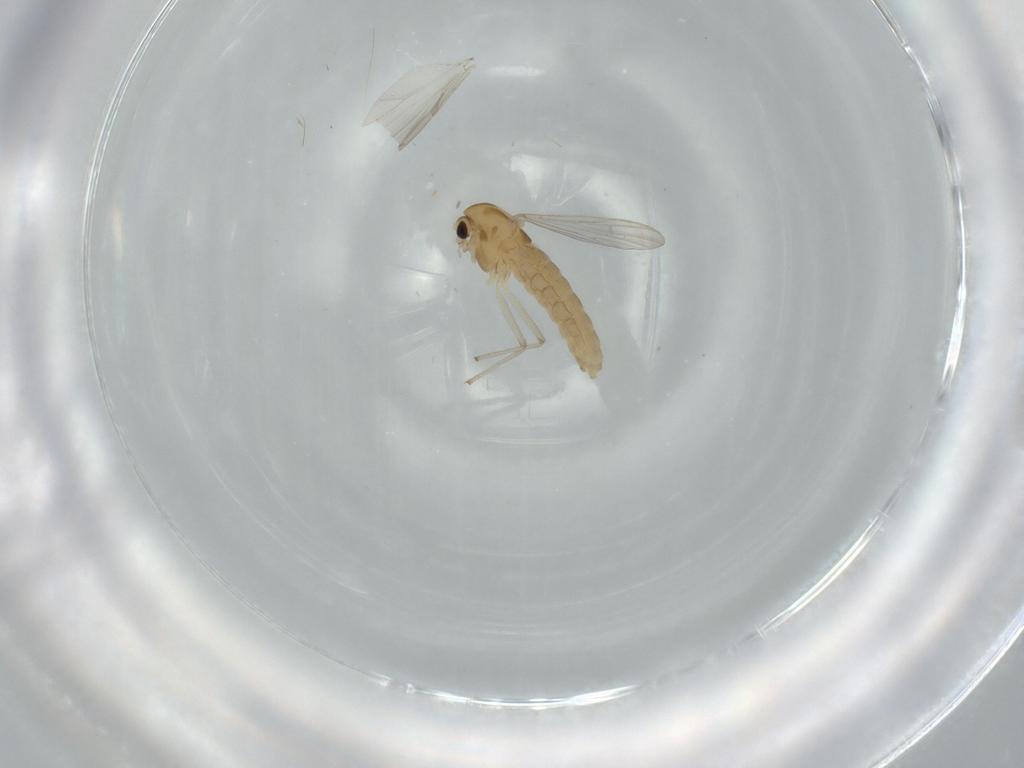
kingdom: Animalia
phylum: Arthropoda
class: Insecta
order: Diptera
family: Chironomidae
